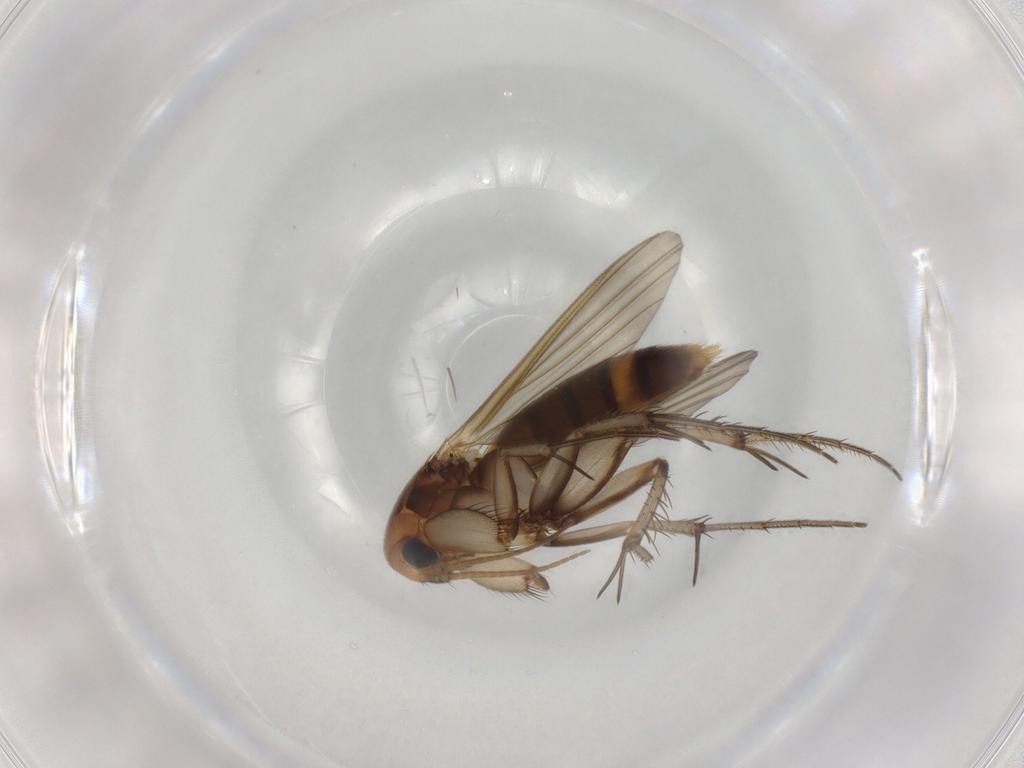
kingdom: Animalia
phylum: Arthropoda
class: Insecta
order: Diptera
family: Mycetophilidae
